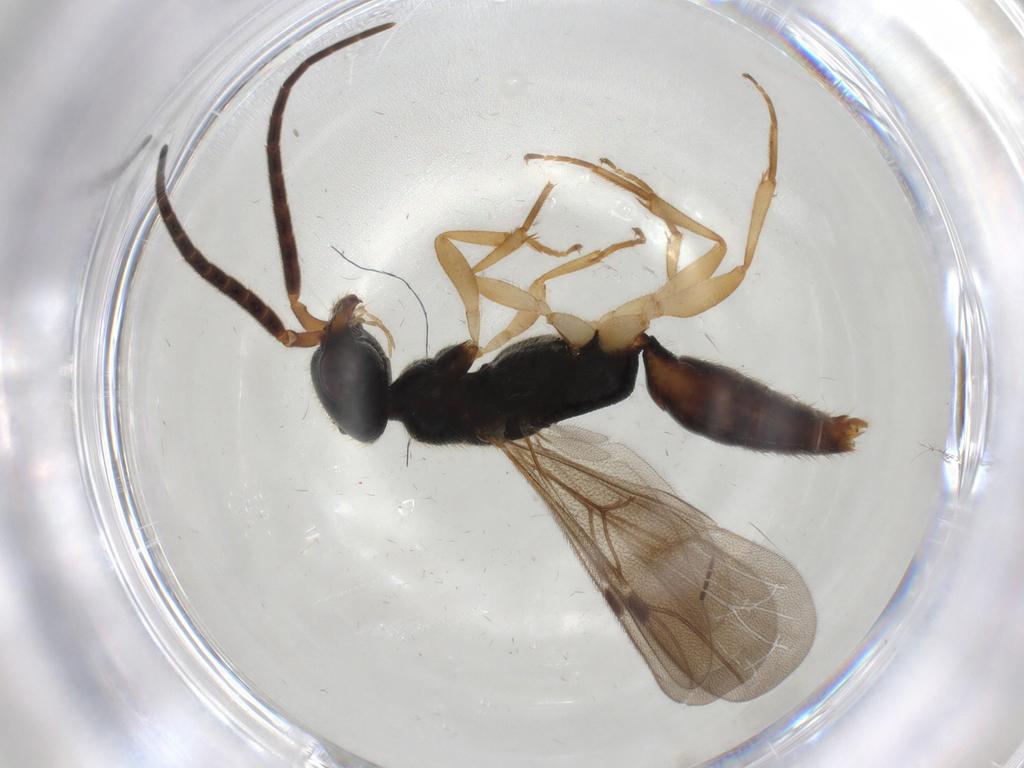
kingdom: Animalia
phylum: Arthropoda
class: Insecta
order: Hymenoptera
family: Bethylidae
